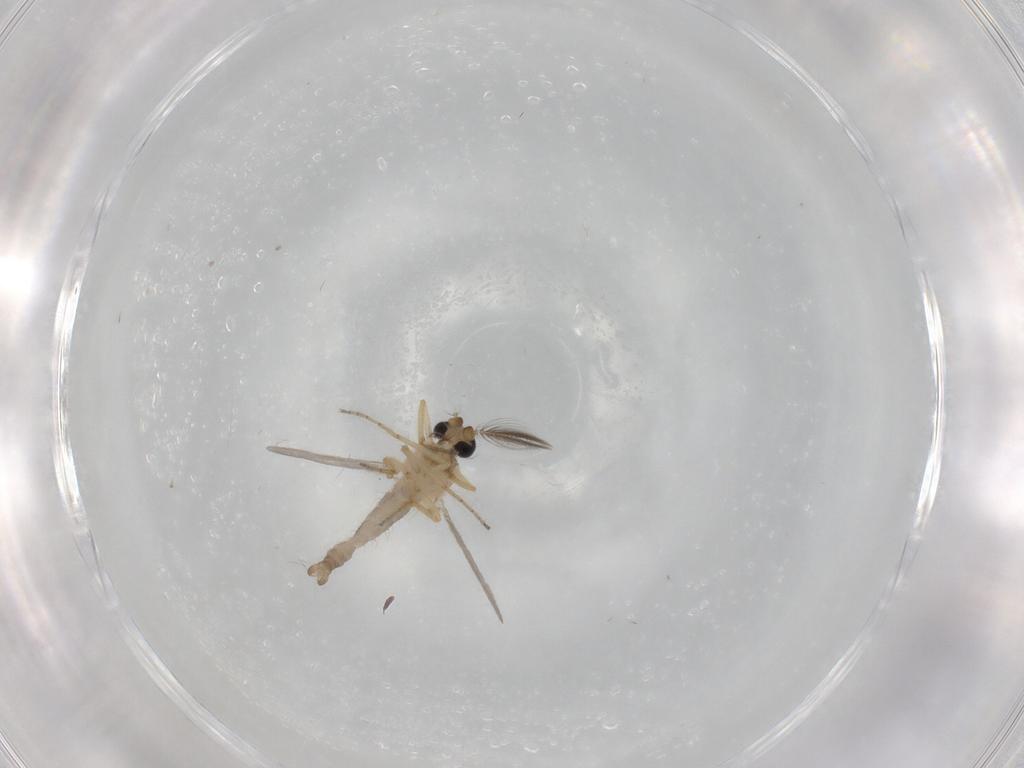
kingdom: Animalia
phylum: Arthropoda
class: Insecta
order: Diptera
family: Ceratopogonidae
